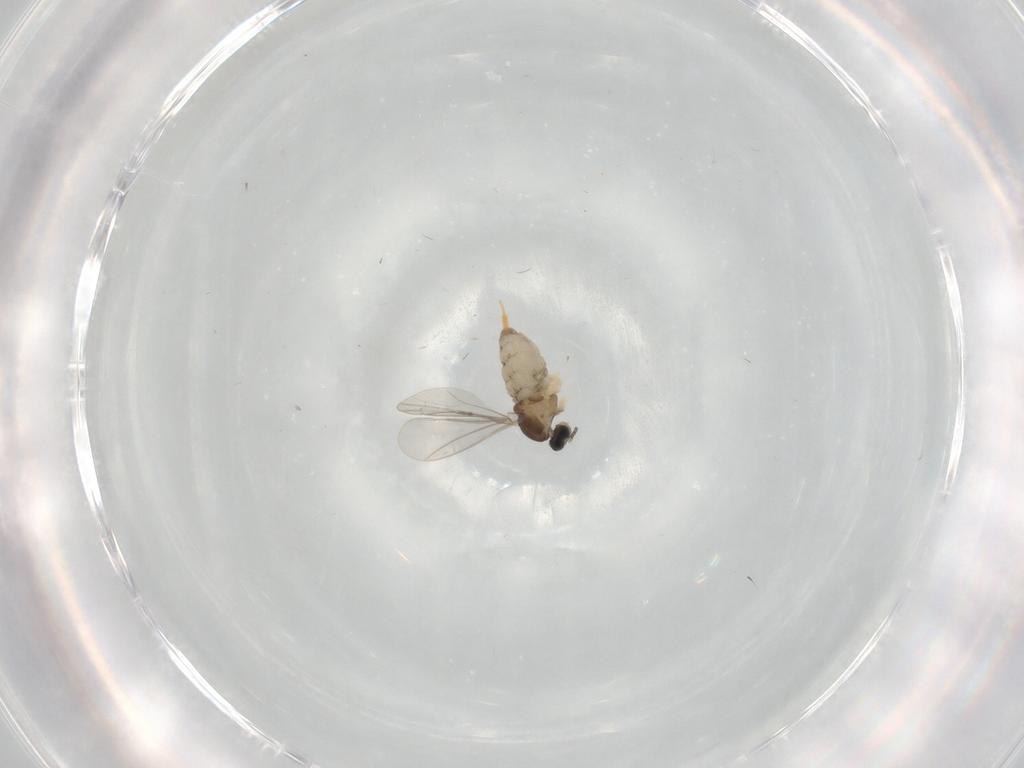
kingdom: Animalia
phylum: Arthropoda
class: Insecta
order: Diptera
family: Cecidomyiidae
